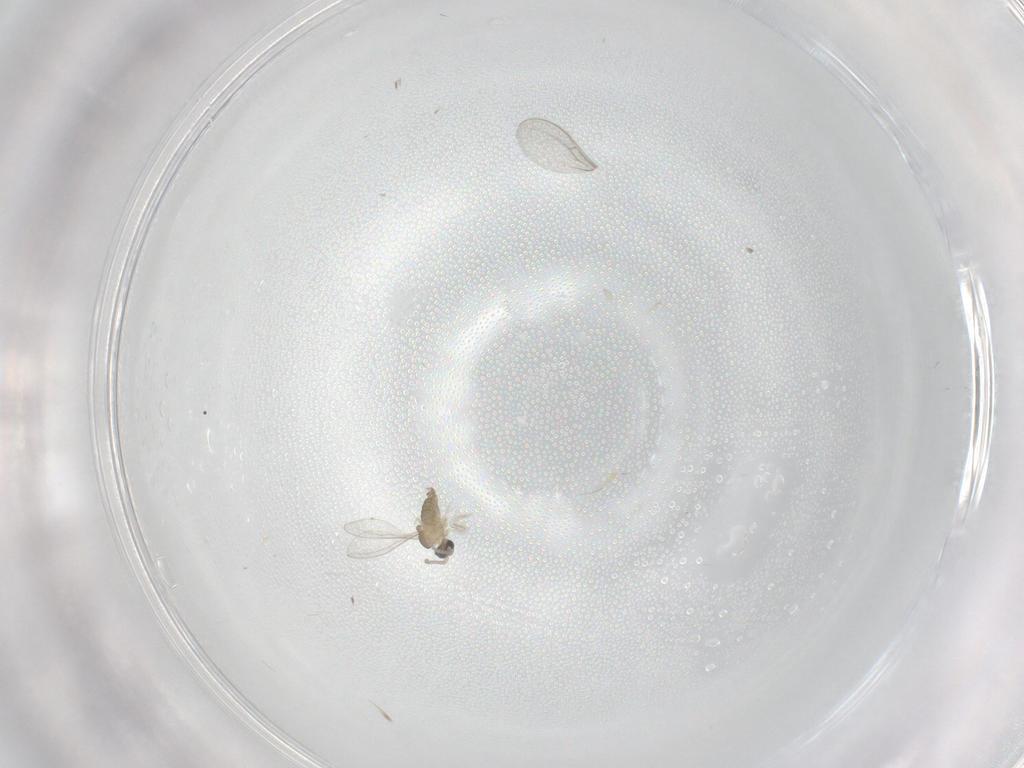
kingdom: Animalia
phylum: Arthropoda
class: Insecta
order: Diptera
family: Cecidomyiidae
